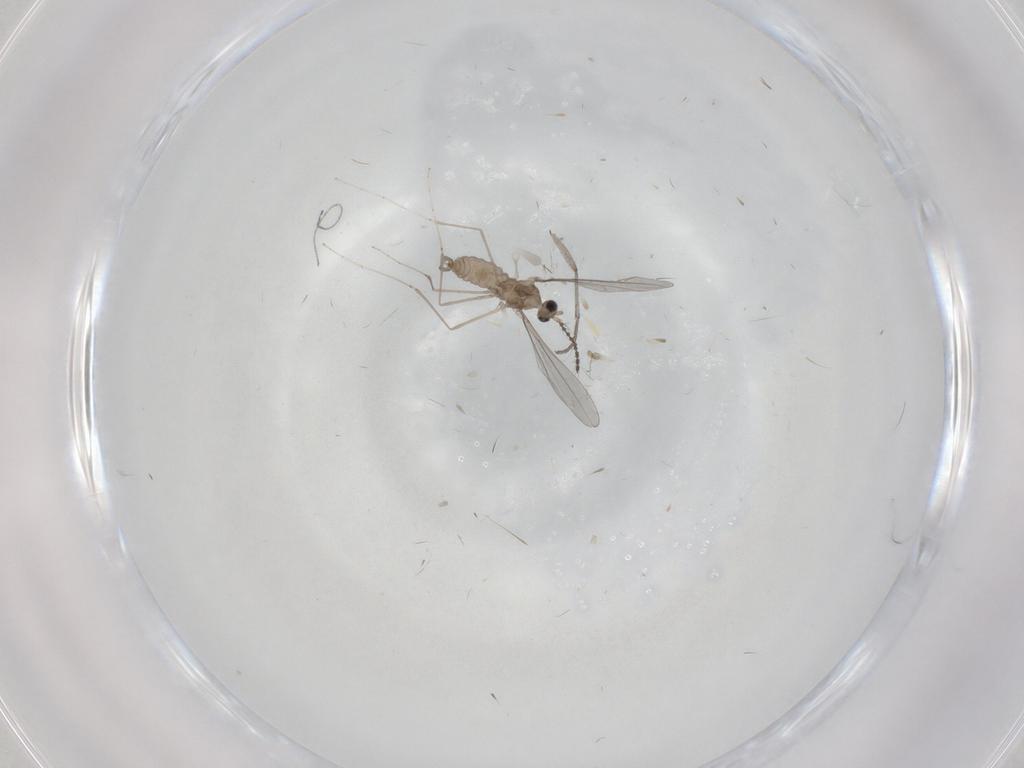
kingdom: Animalia
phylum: Arthropoda
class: Insecta
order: Diptera
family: Cecidomyiidae
